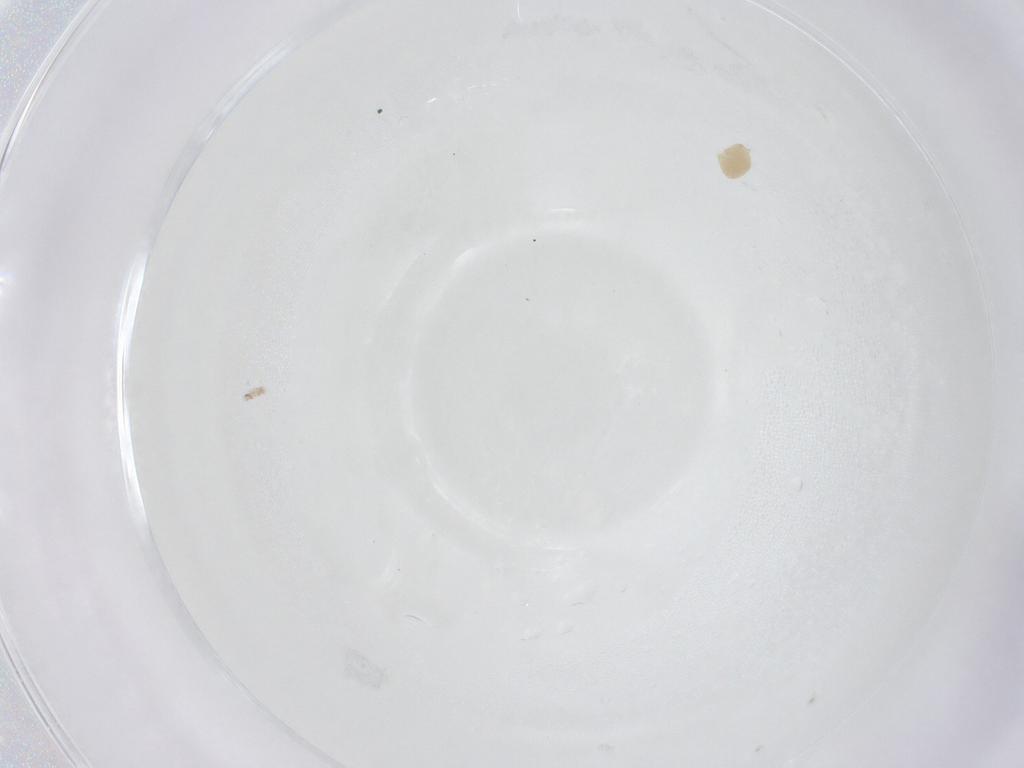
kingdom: Animalia
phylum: Arthropoda
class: Insecta
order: Diptera
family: Chironomidae
